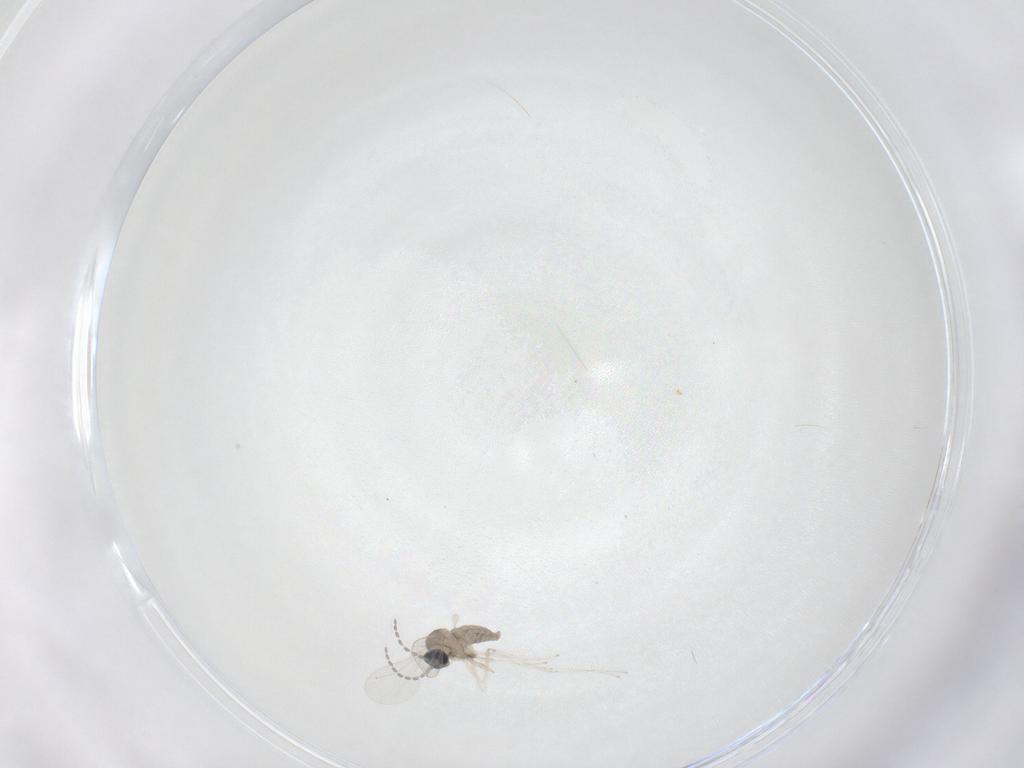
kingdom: Animalia
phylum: Arthropoda
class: Insecta
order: Diptera
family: Cecidomyiidae
